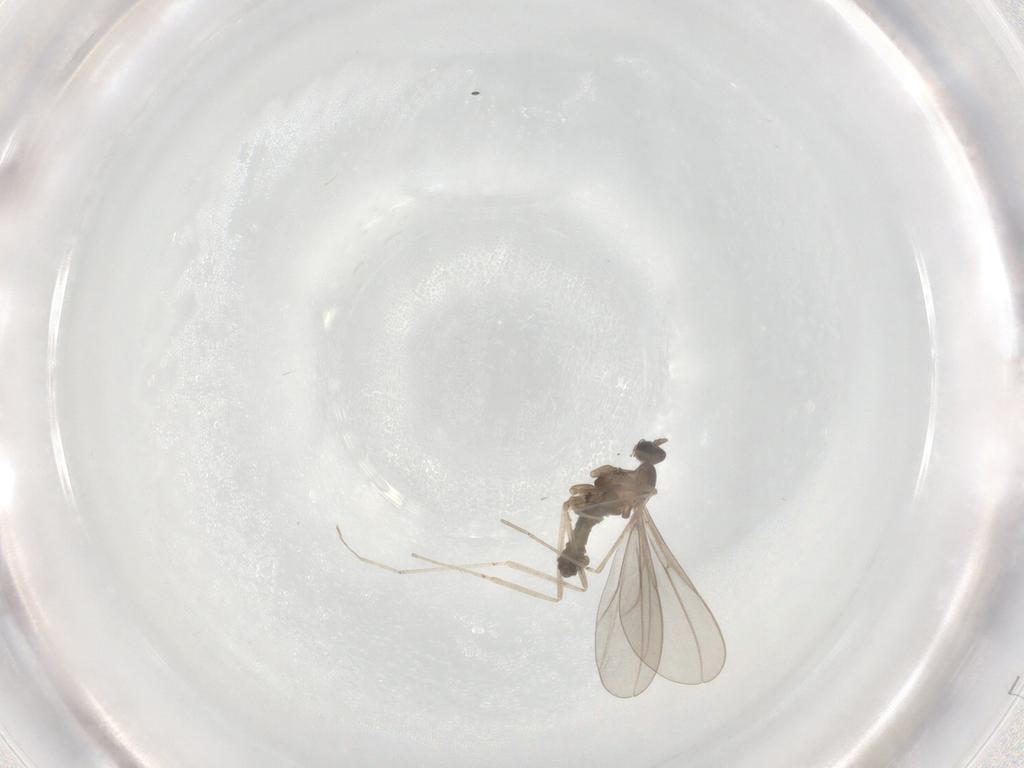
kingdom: Animalia
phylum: Arthropoda
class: Insecta
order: Diptera
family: Cecidomyiidae
